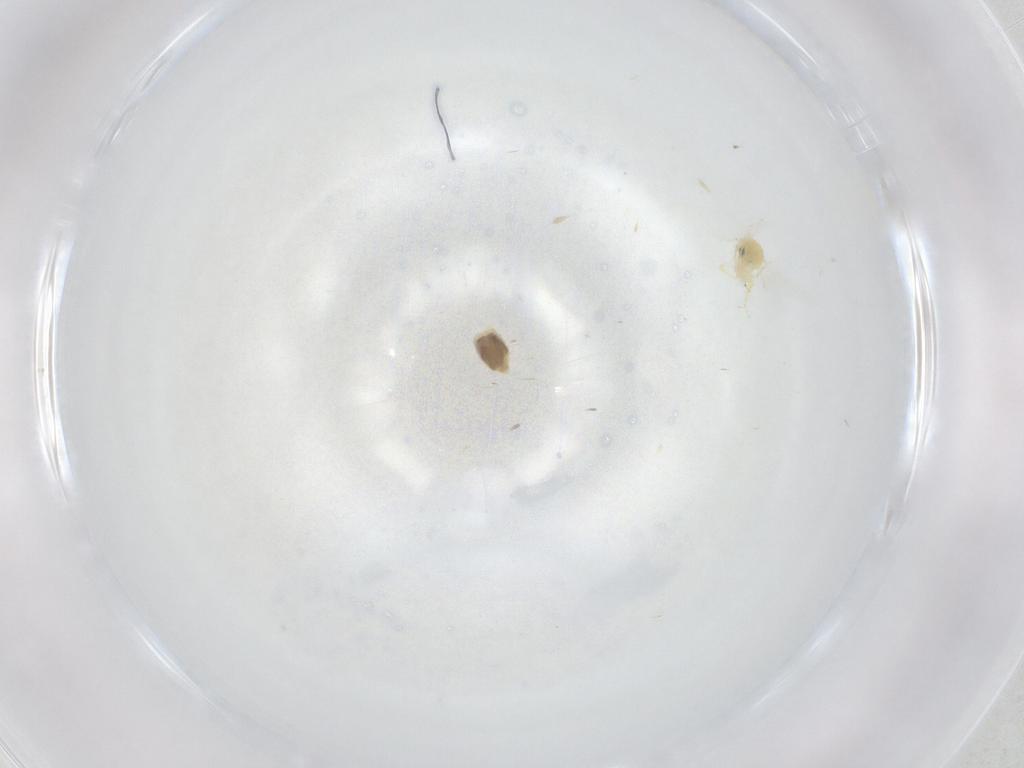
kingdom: Animalia
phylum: Arthropoda
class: Insecta
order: Hemiptera
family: Aleyrodidae
